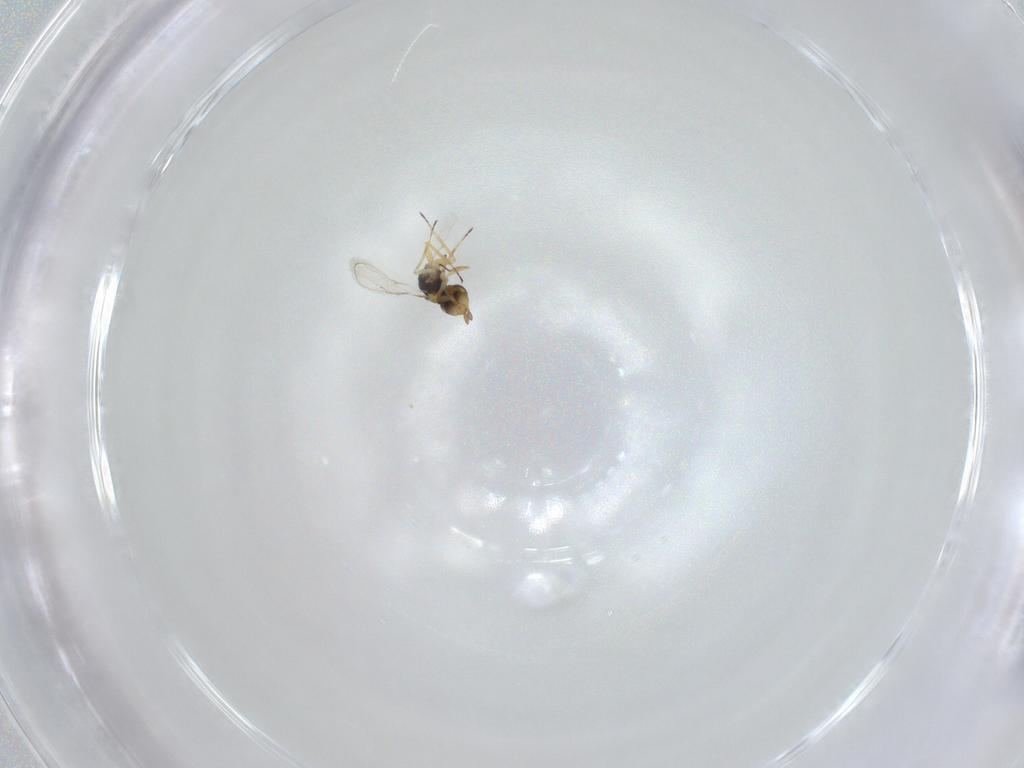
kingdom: Animalia
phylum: Arthropoda
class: Insecta
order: Hymenoptera
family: Eulophidae
